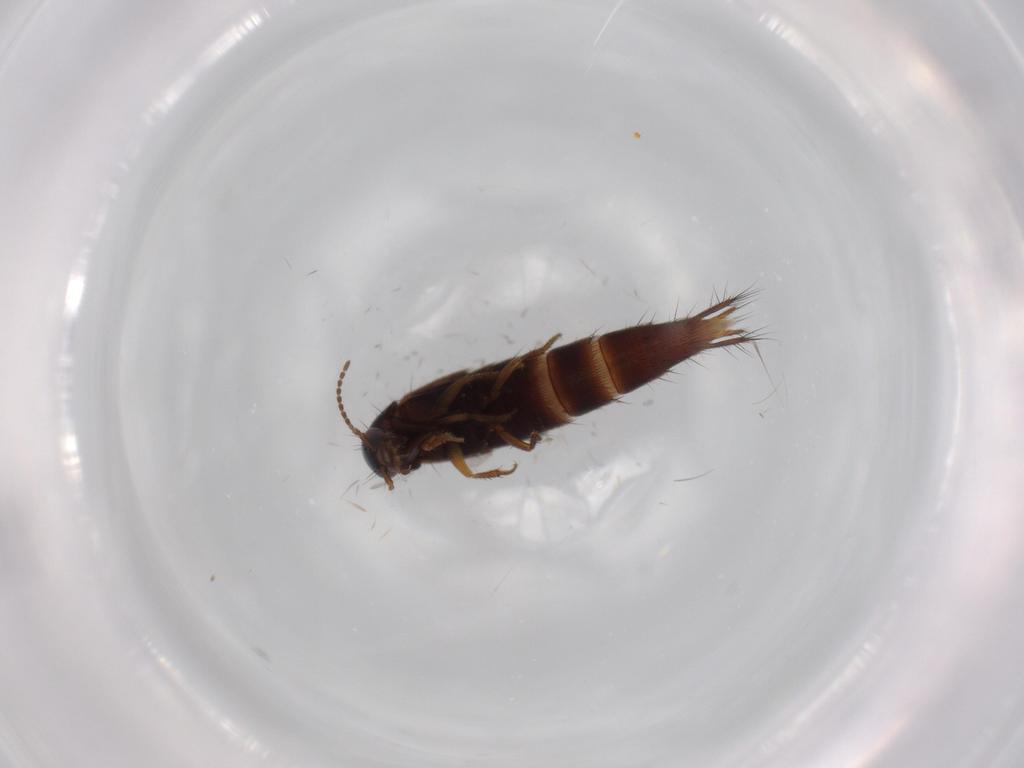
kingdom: Animalia
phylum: Arthropoda
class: Insecta
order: Coleoptera
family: Staphylinidae
